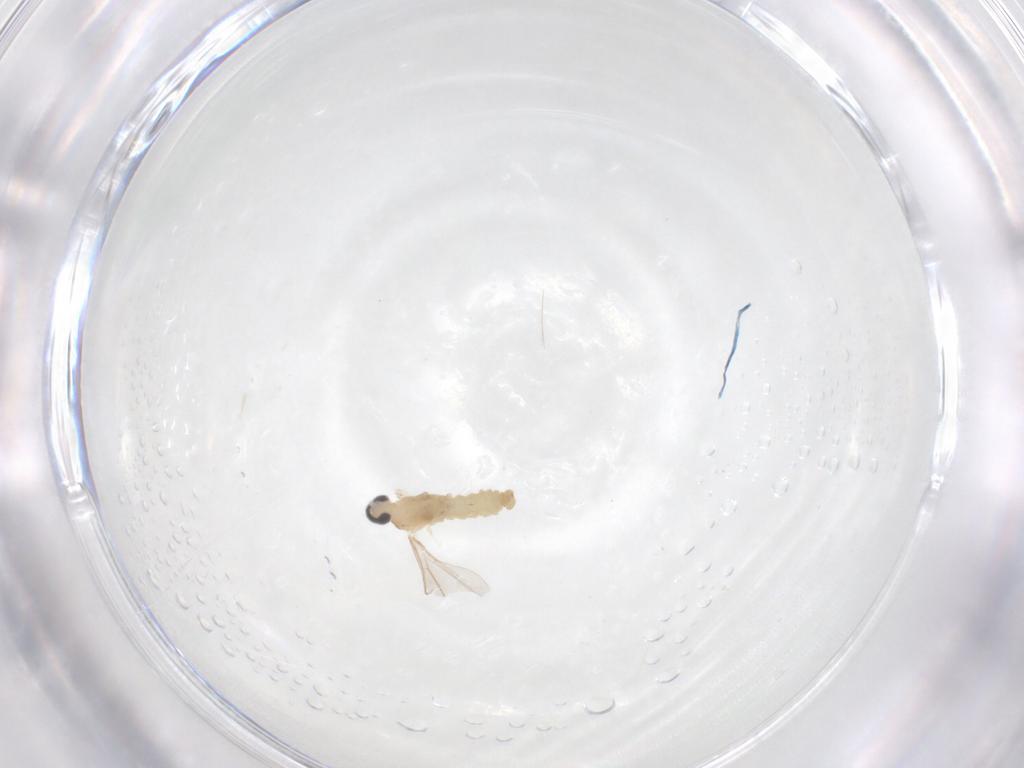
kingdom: Animalia
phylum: Arthropoda
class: Insecta
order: Diptera
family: Cecidomyiidae
